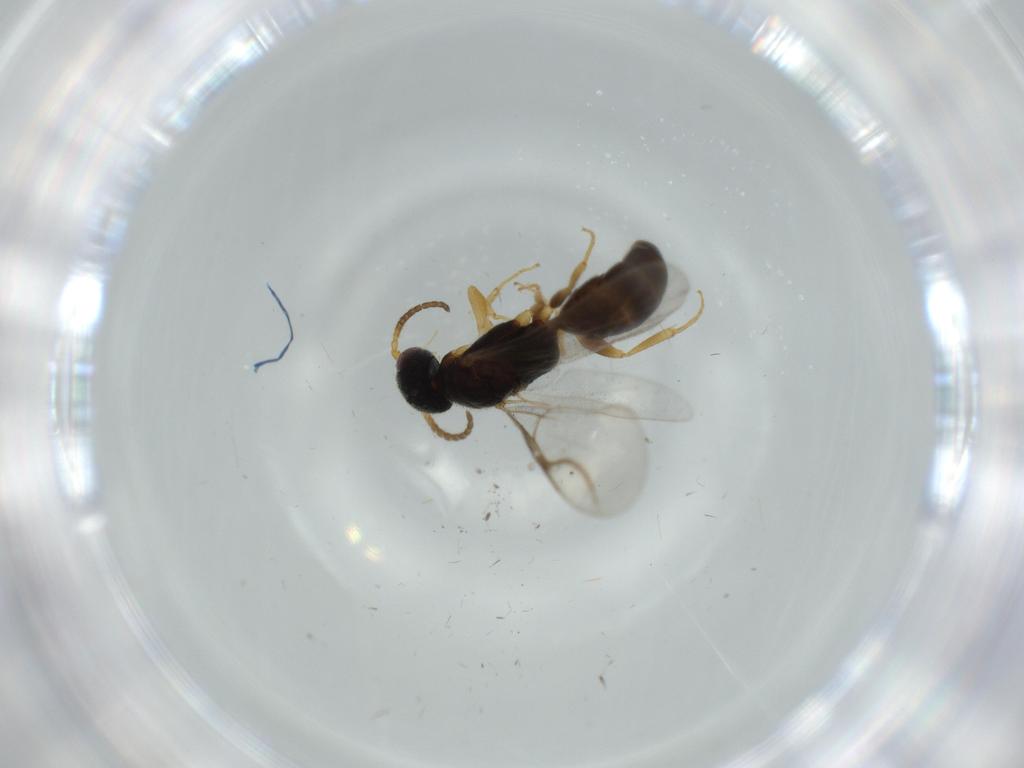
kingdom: Animalia
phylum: Arthropoda
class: Insecta
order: Hymenoptera
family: Bethylidae
